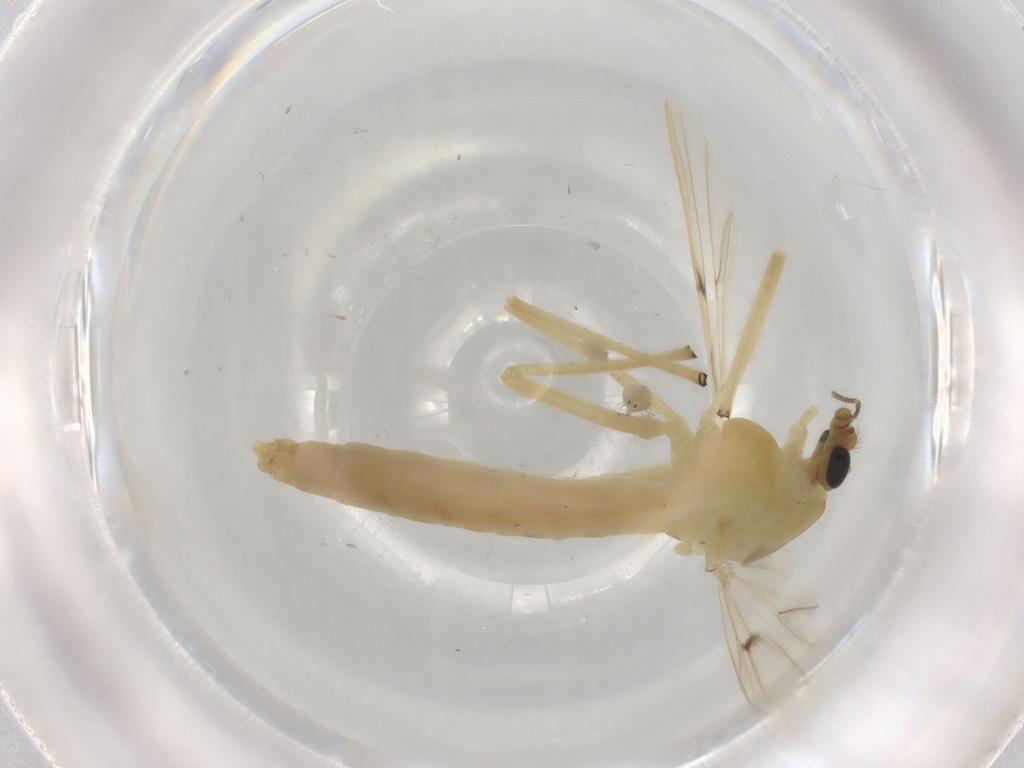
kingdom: Animalia
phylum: Arthropoda
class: Insecta
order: Diptera
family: Chironomidae
